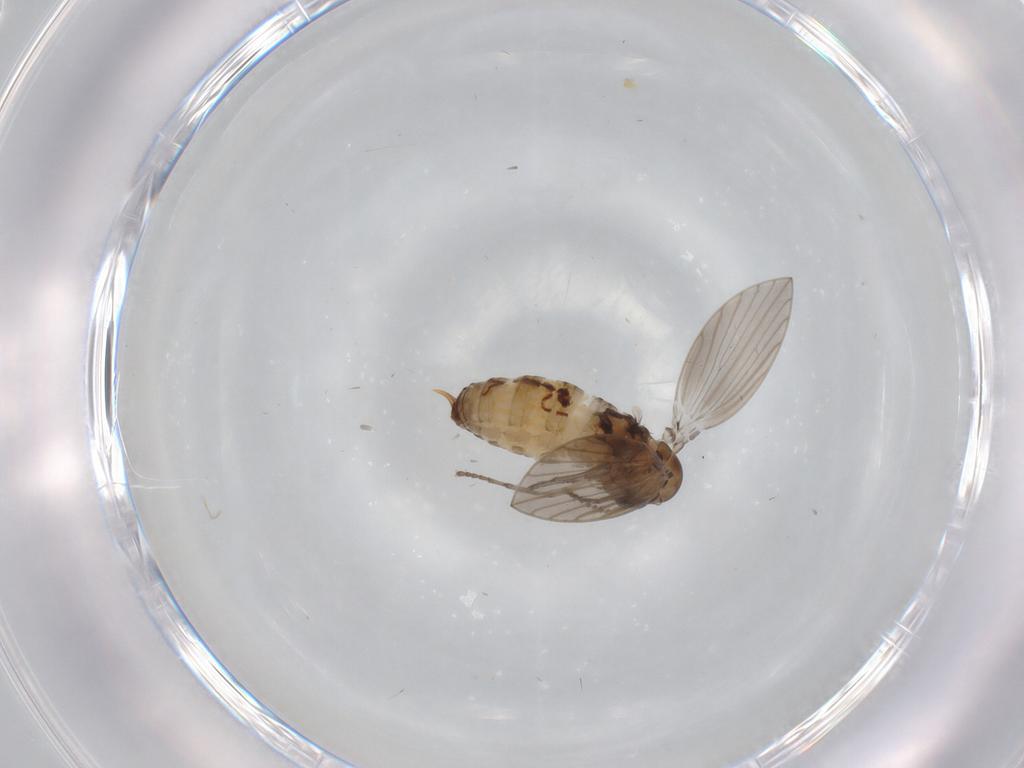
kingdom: Animalia
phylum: Arthropoda
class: Insecta
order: Diptera
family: Psychodidae
